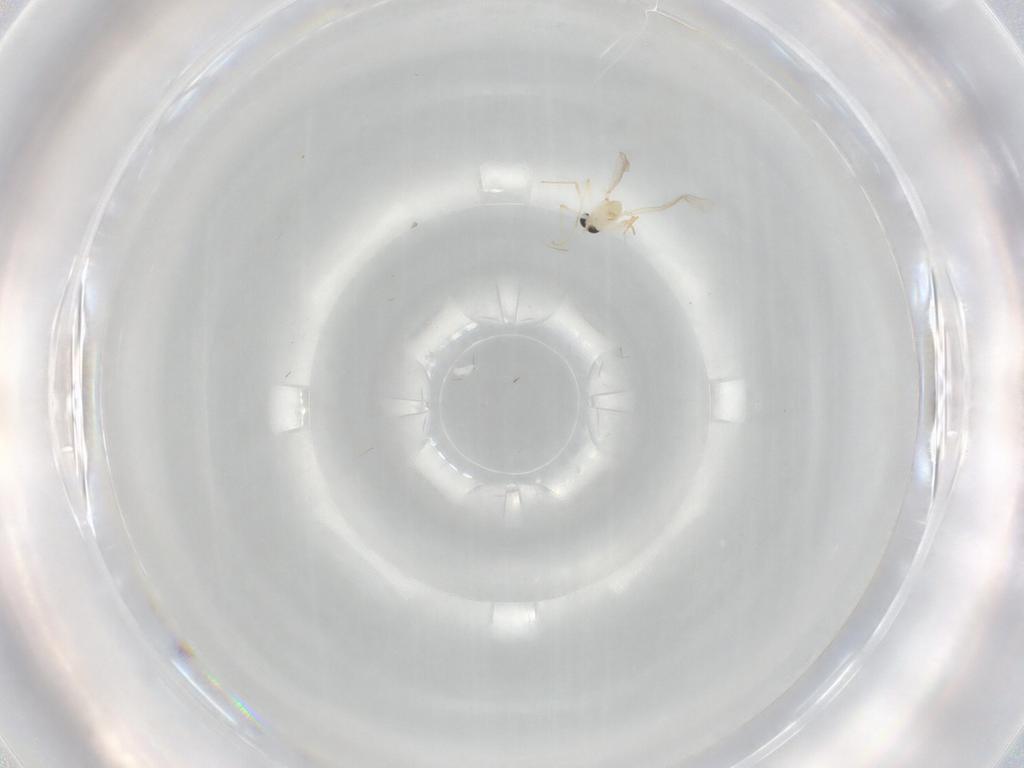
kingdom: Animalia
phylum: Arthropoda
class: Insecta
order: Diptera
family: Chironomidae
